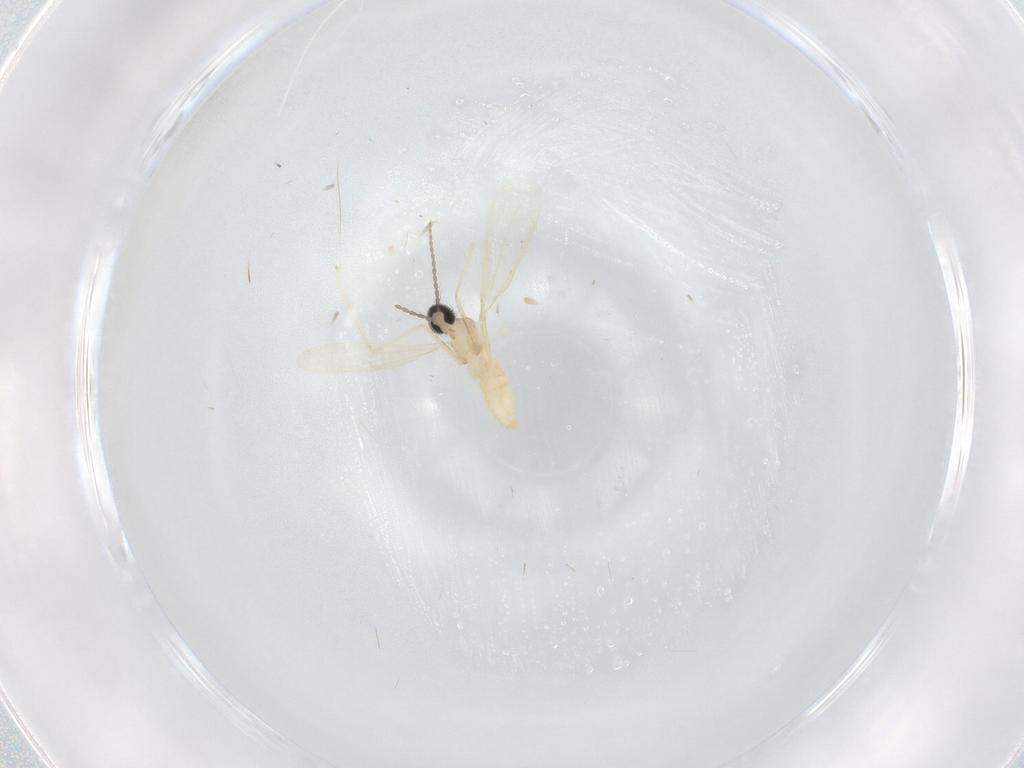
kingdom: Animalia
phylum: Arthropoda
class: Insecta
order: Diptera
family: Cecidomyiidae
